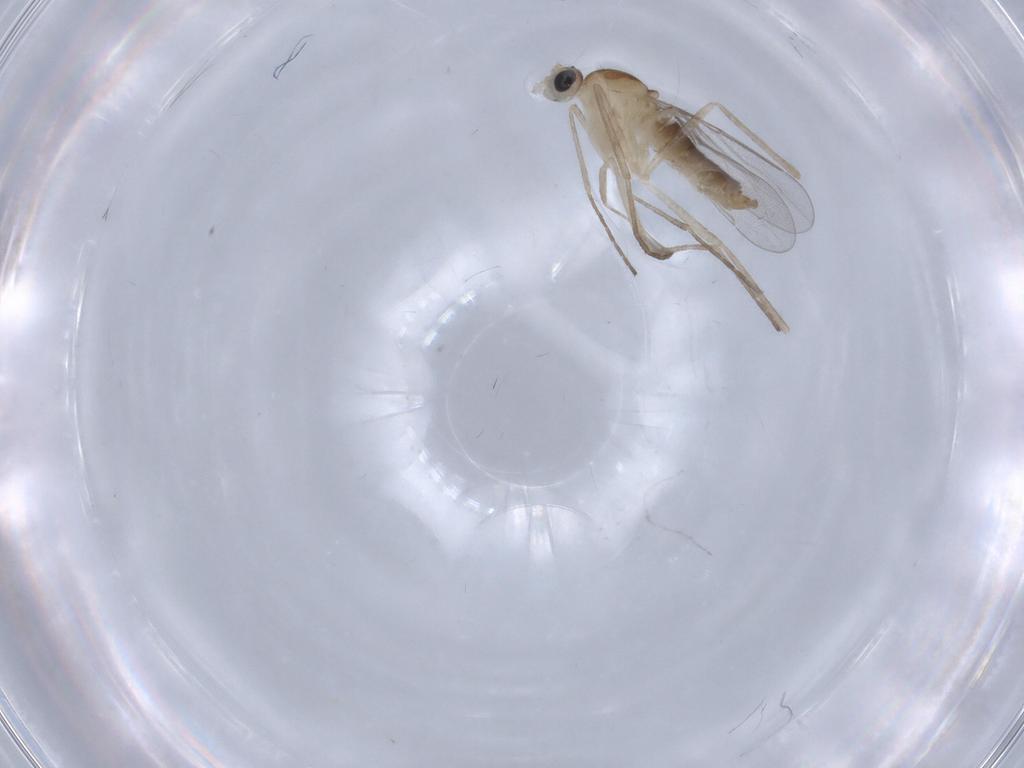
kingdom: Animalia
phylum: Arthropoda
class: Insecta
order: Diptera
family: Cecidomyiidae
